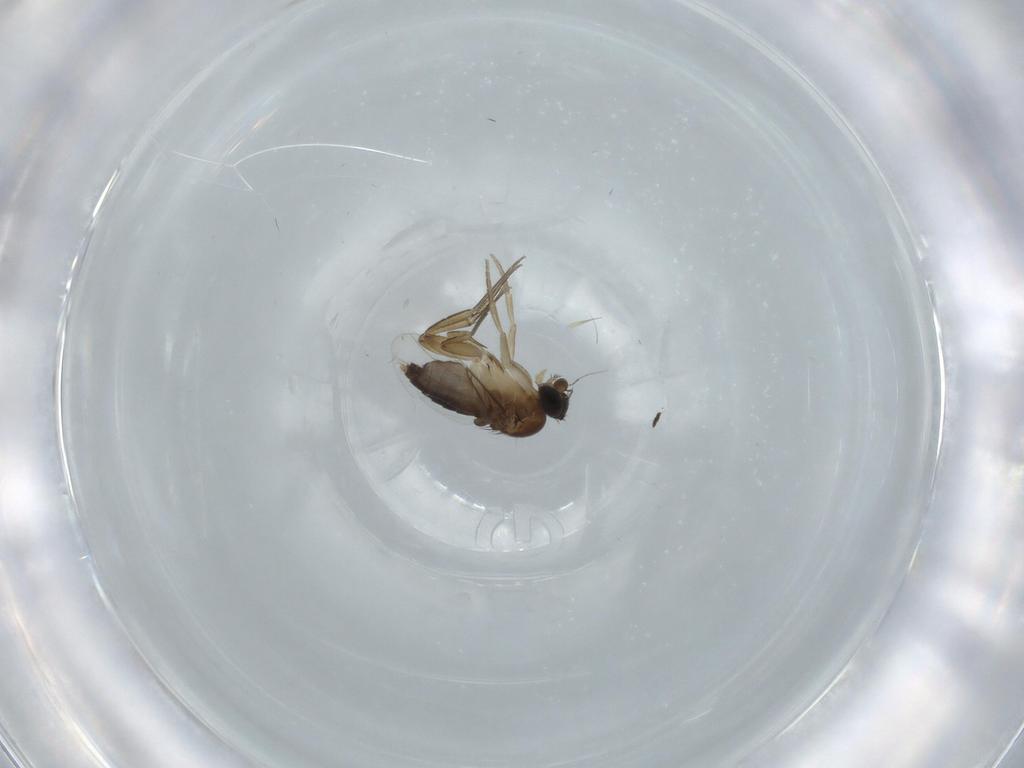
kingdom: Animalia
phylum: Arthropoda
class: Insecta
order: Diptera
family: Phoridae
